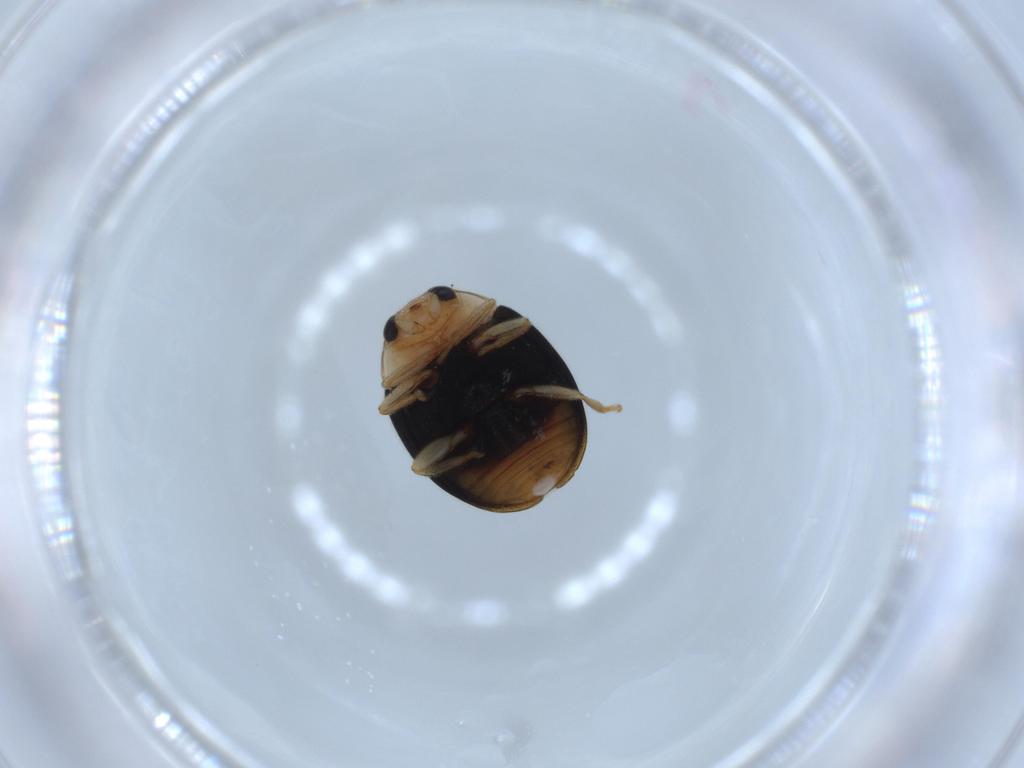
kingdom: Animalia
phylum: Arthropoda
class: Insecta
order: Coleoptera
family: Coccinellidae
